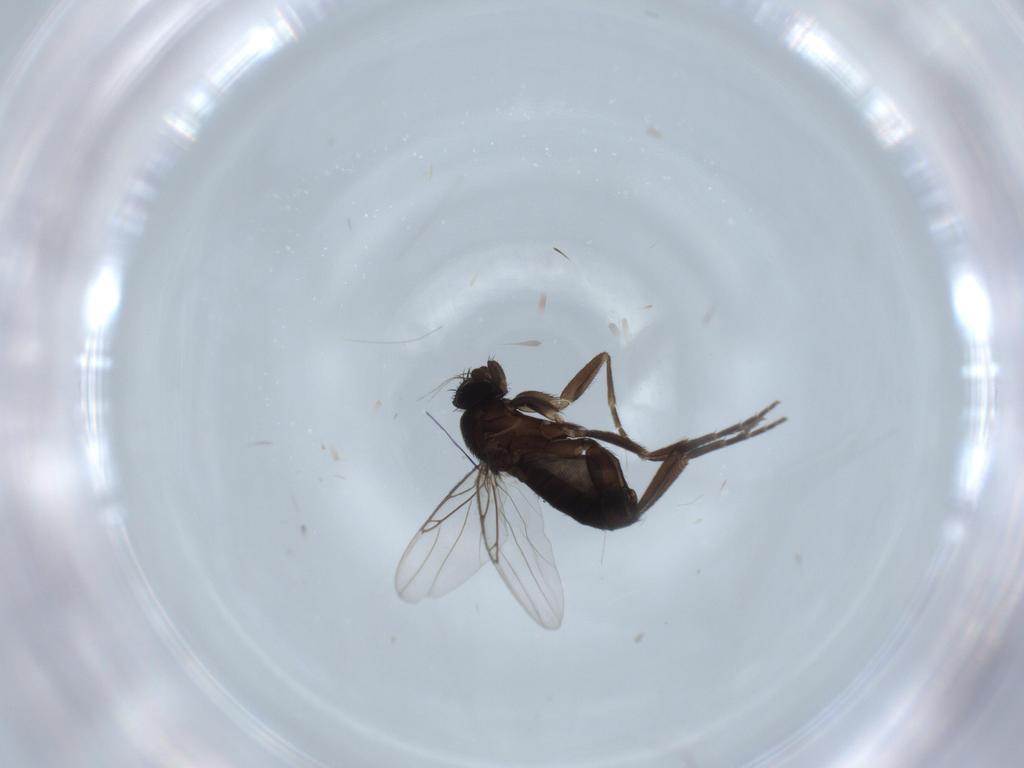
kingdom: Animalia
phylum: Arthropoda
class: Insecta
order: Diptera
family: Phoridae
